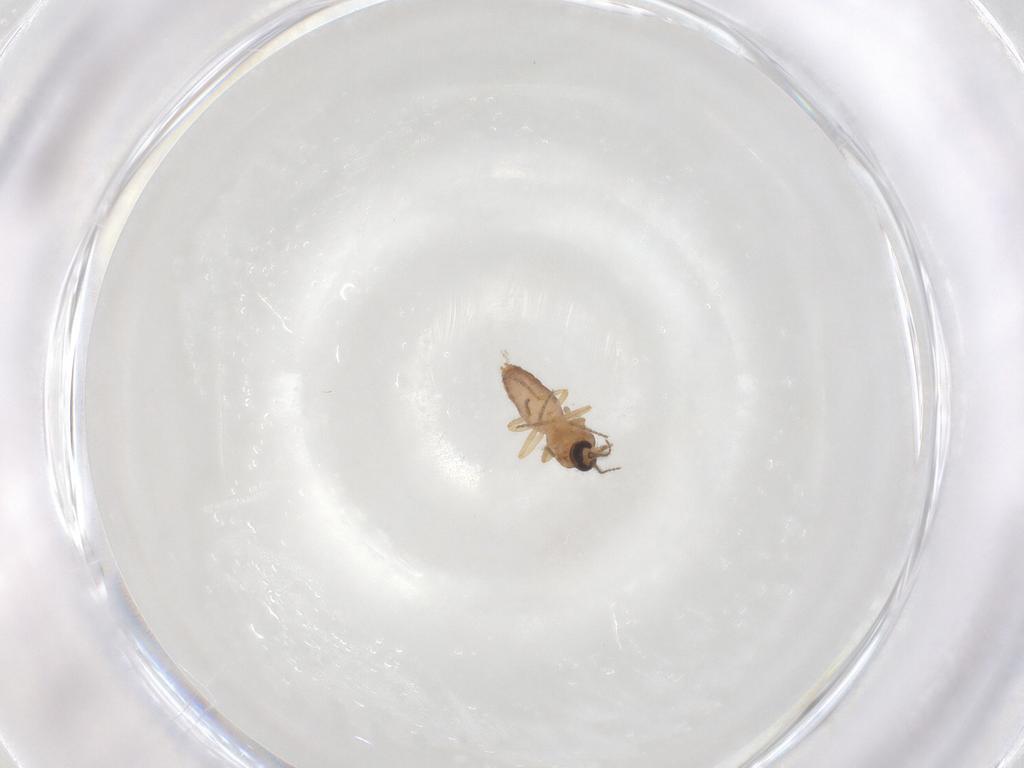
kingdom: Animalia
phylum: Arthropoda
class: Insecta
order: Diptera
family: Ceratopogonidae
